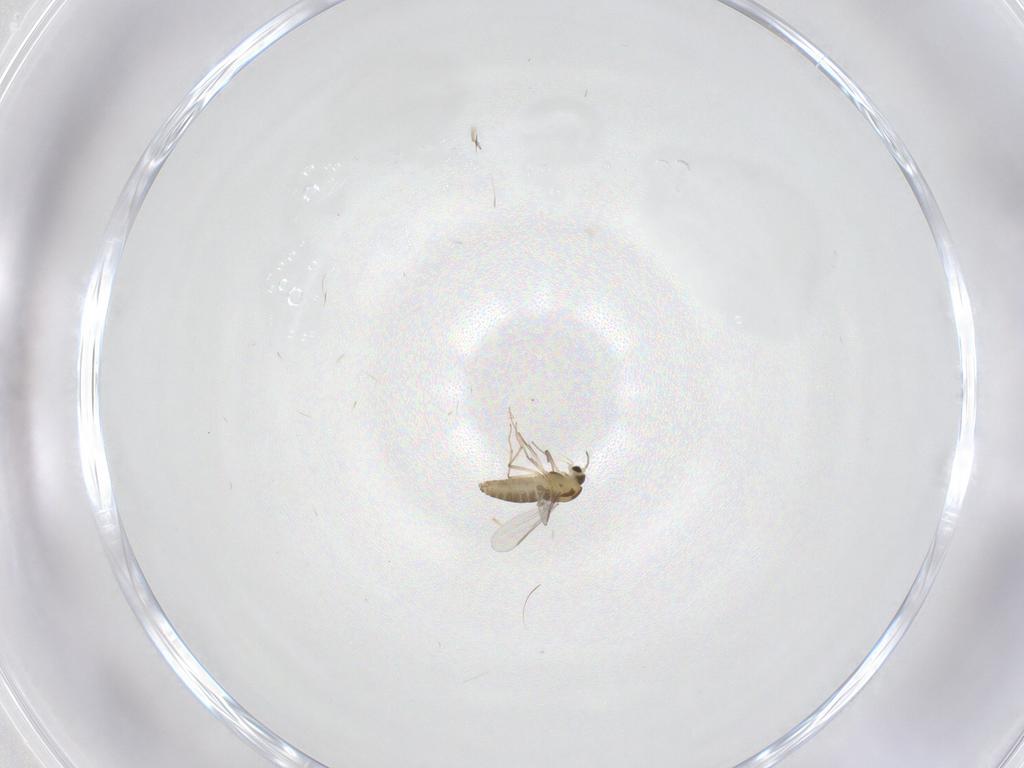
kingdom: Animalia
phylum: Arthropoda
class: Insecta
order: Diptera
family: Chironomidae
